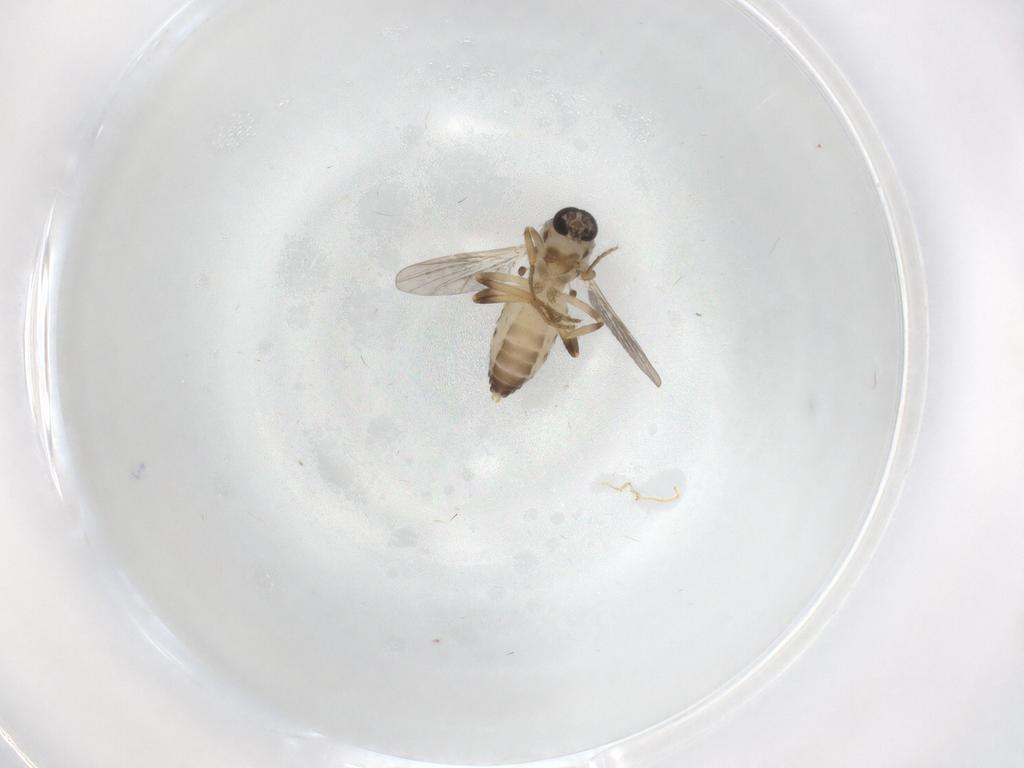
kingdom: Animalia
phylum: Arthropoda
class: Insecta
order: Diptera
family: Ceratopogonidae
